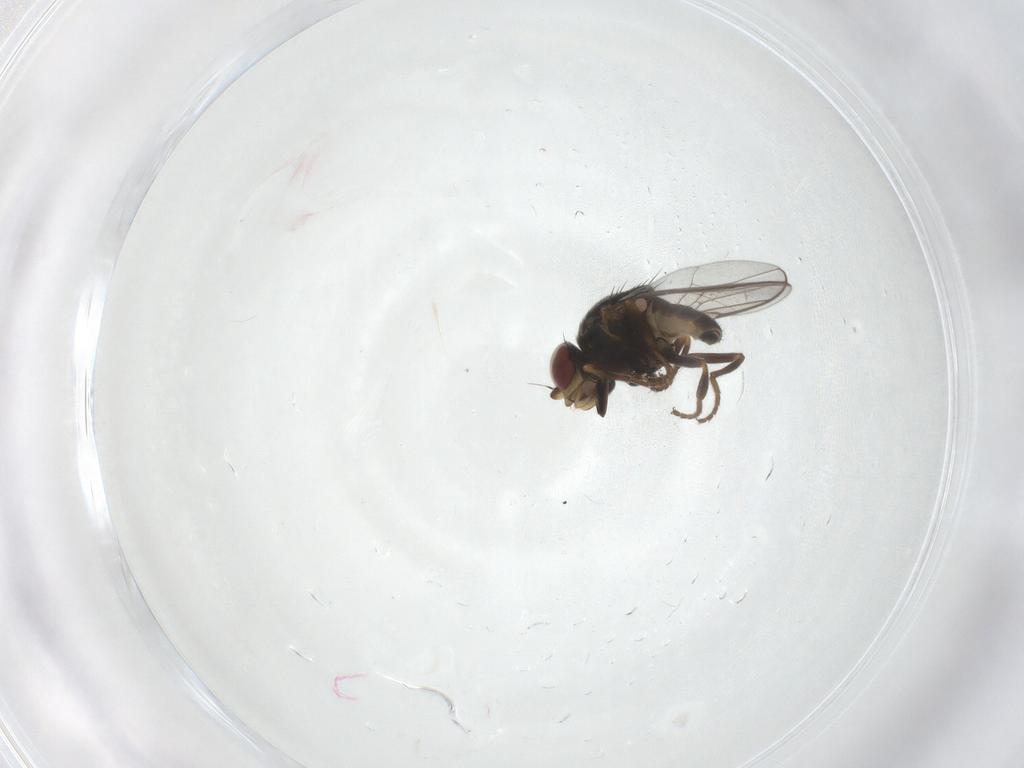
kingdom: Animalia
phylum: Arthropoda
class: Insecta
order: Diptera
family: Chloropidae
